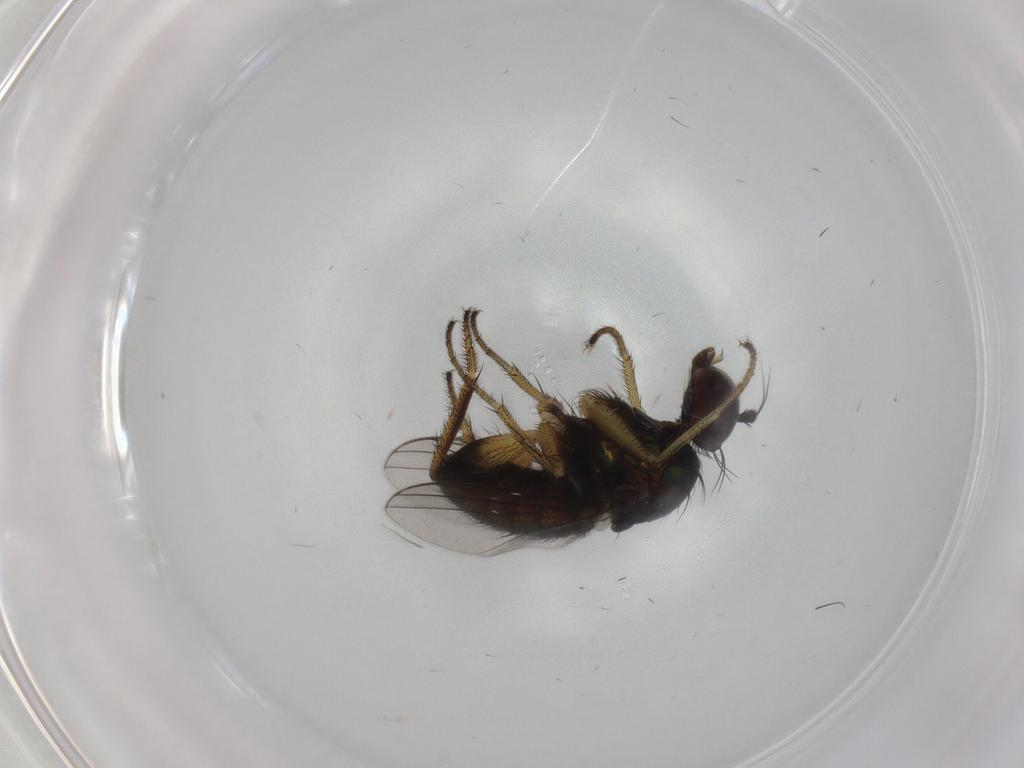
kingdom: Animalia
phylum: Arthropoda
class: Insecta
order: Diptera
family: Dolichopodidae
